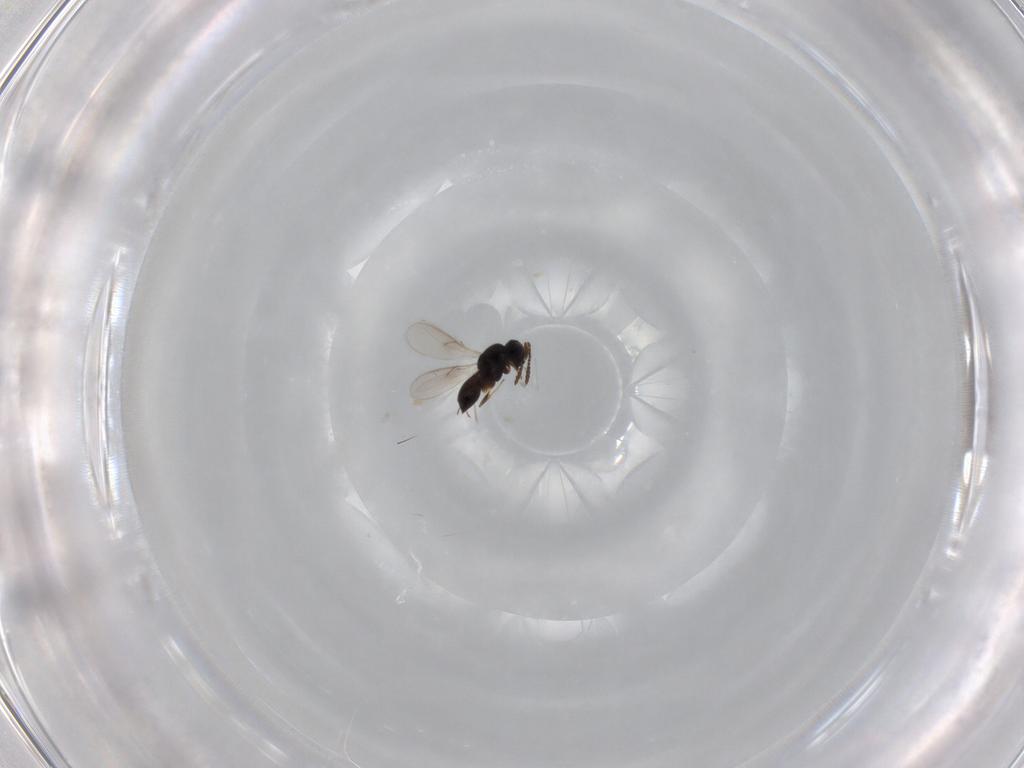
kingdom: Animalia
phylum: Arthropoda
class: Insecta
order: Hymenoptera
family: Scelionidae
